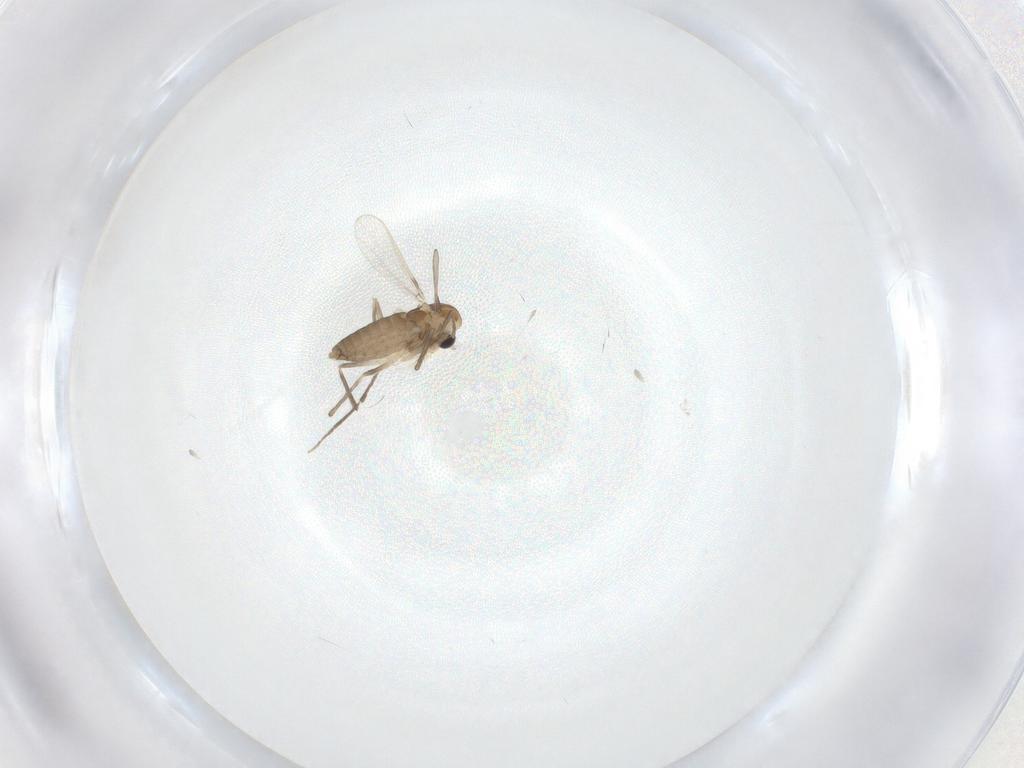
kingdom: Animalia
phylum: Arthropoda
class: Insecta
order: Diptera
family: Chironomidae
